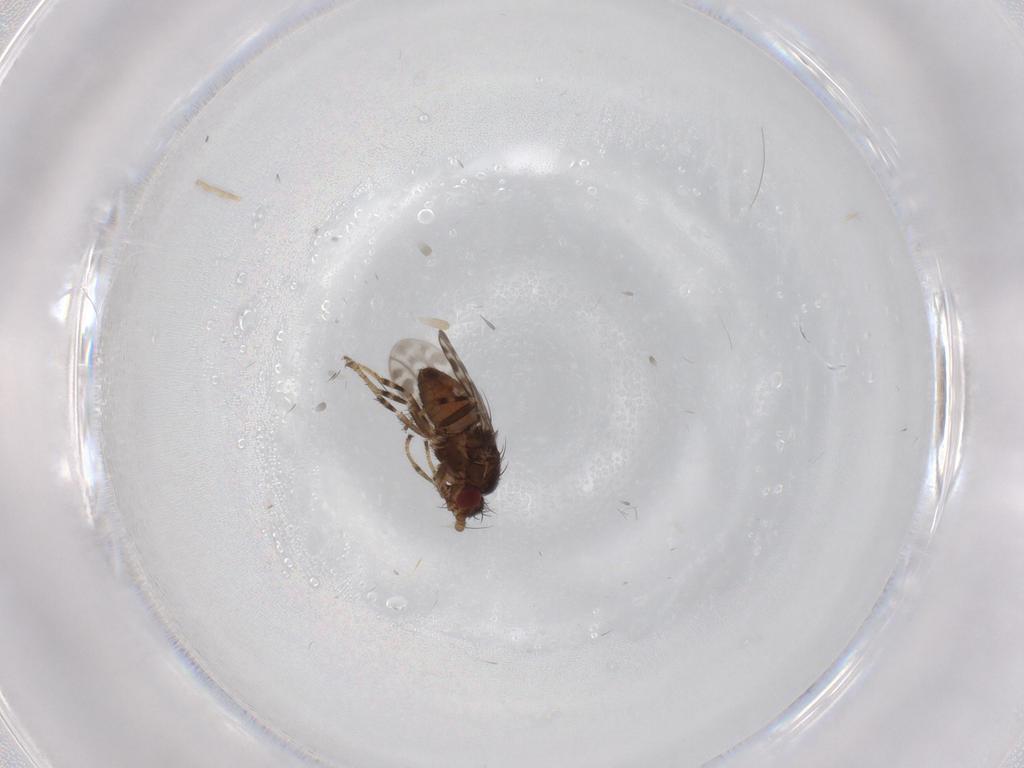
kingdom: Animalia
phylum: Arthropoda
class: Insecta
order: Diptera
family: Sphaeroceridae
